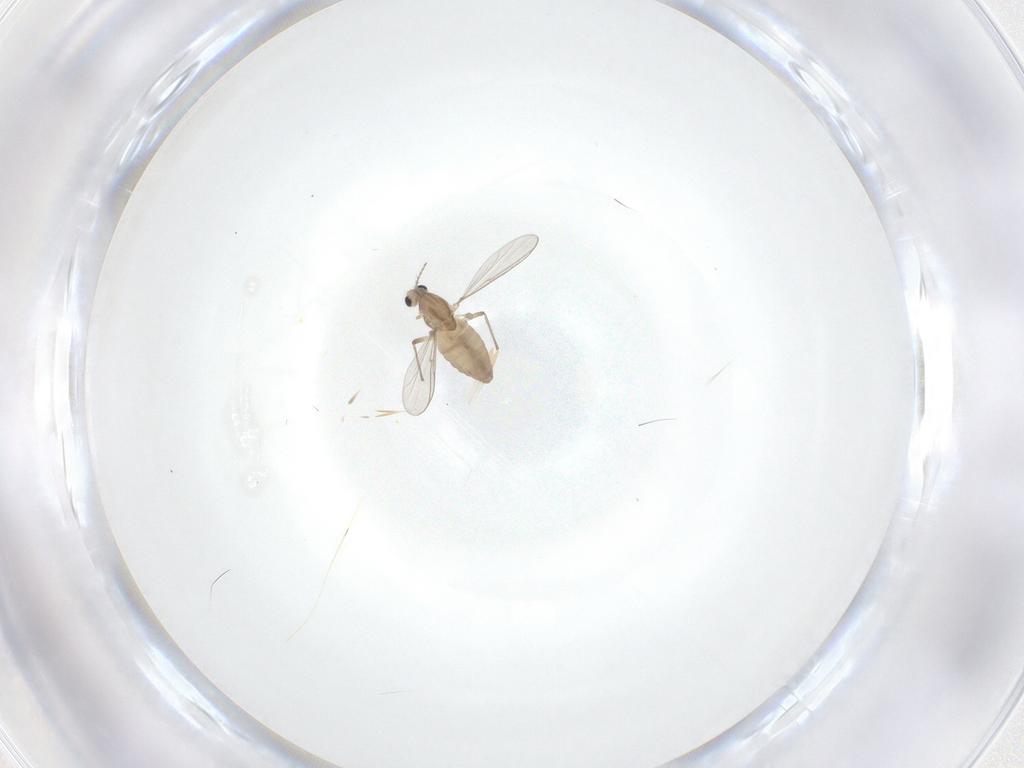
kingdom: Animalia
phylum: Arthropoda
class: Insecta
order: Diptera
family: Chironomidae
